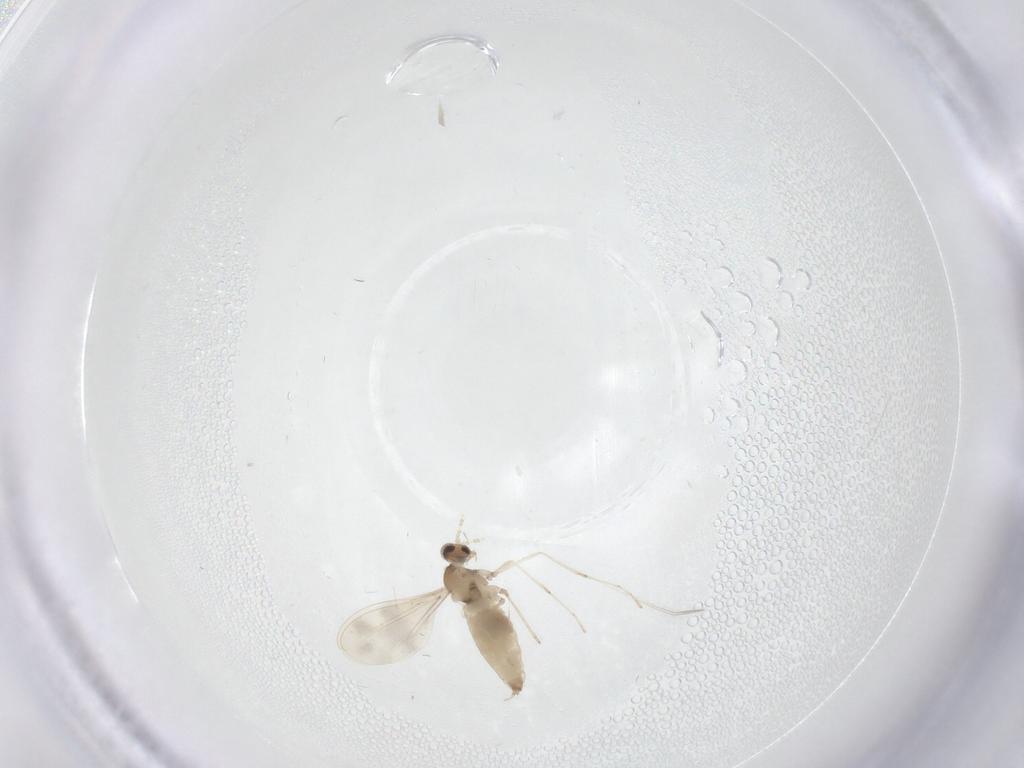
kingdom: Animalia
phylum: Arthropoda
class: Insecta
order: Diptera
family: Cecidomyiidae
